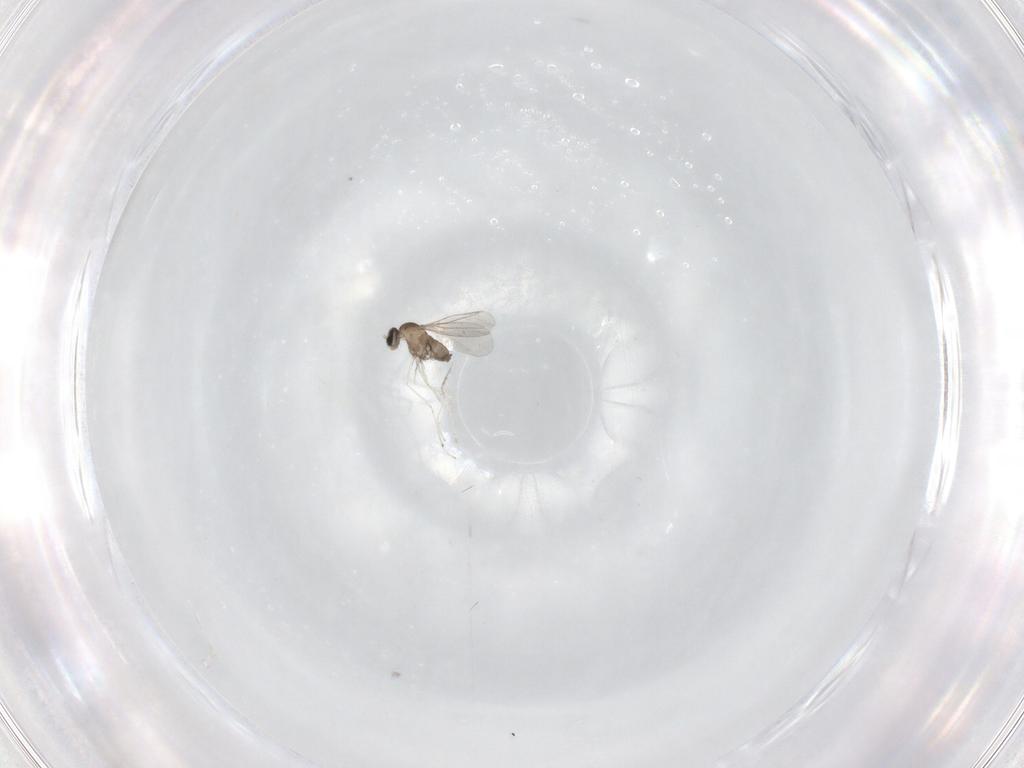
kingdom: Animalia
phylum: Arthropoda
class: Insecta
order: Diptera
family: Cecidomyiidae
